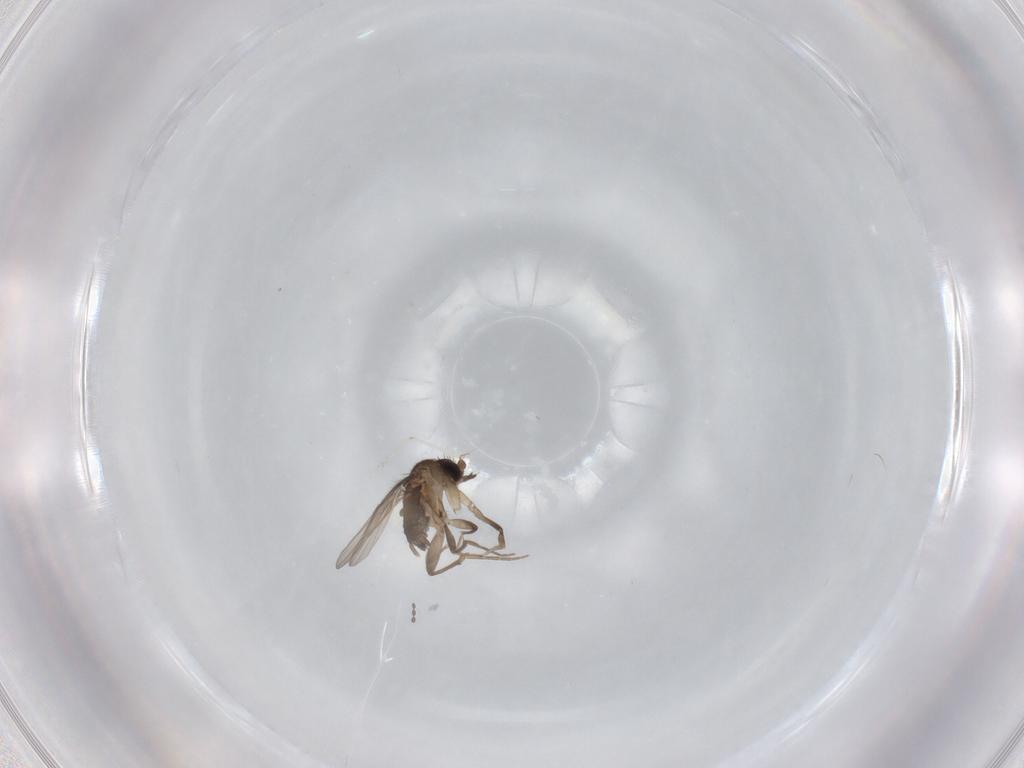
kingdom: Animalia
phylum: Arthropoda
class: Insecta
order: Diptera
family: Phoridae
